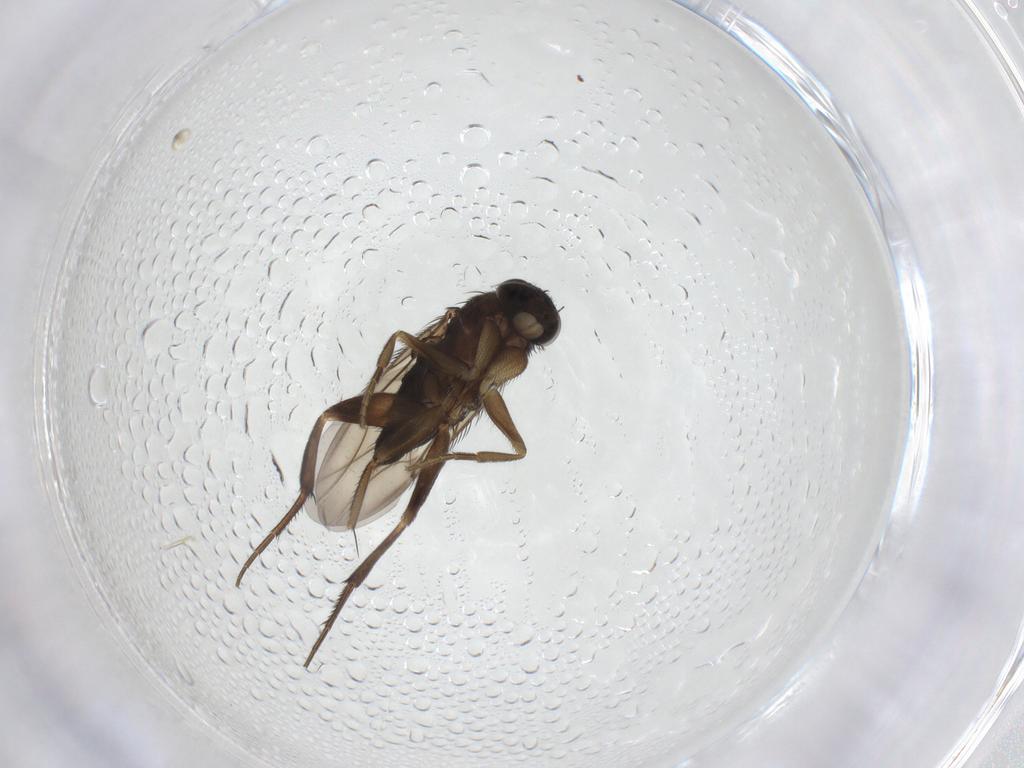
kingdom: Animalia
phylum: Arthropoda
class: Insecta
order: Diptera
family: Phoridae
